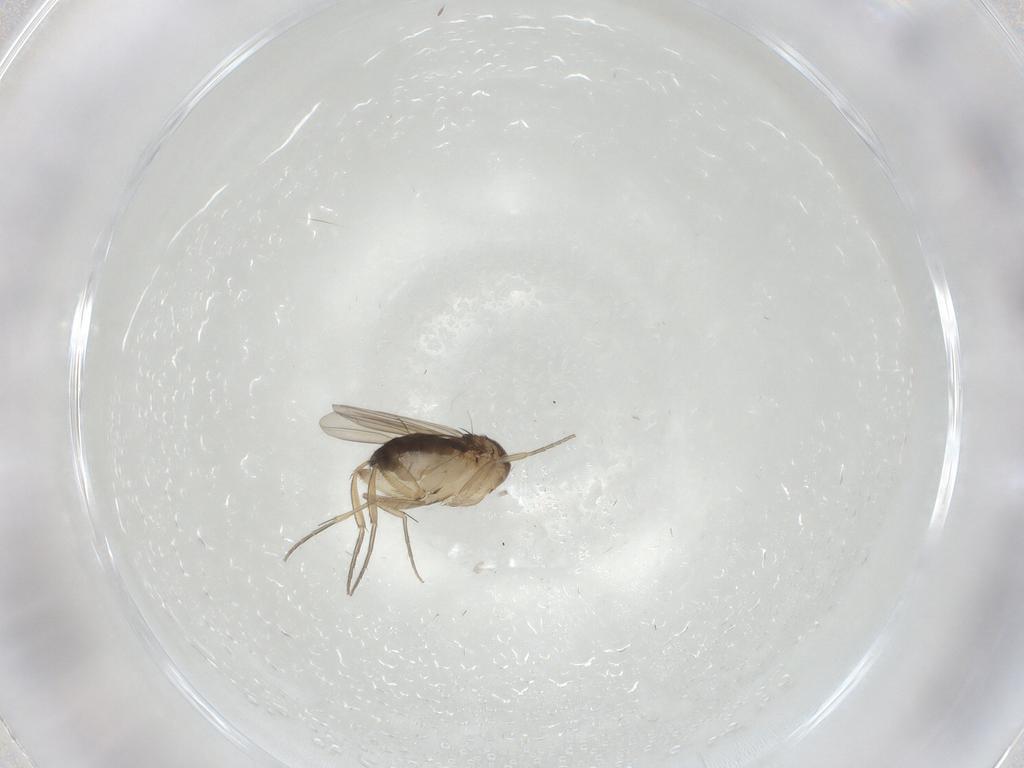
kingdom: Animalia
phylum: Arthropoda
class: Insecta
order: Diptera
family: Phoridae
